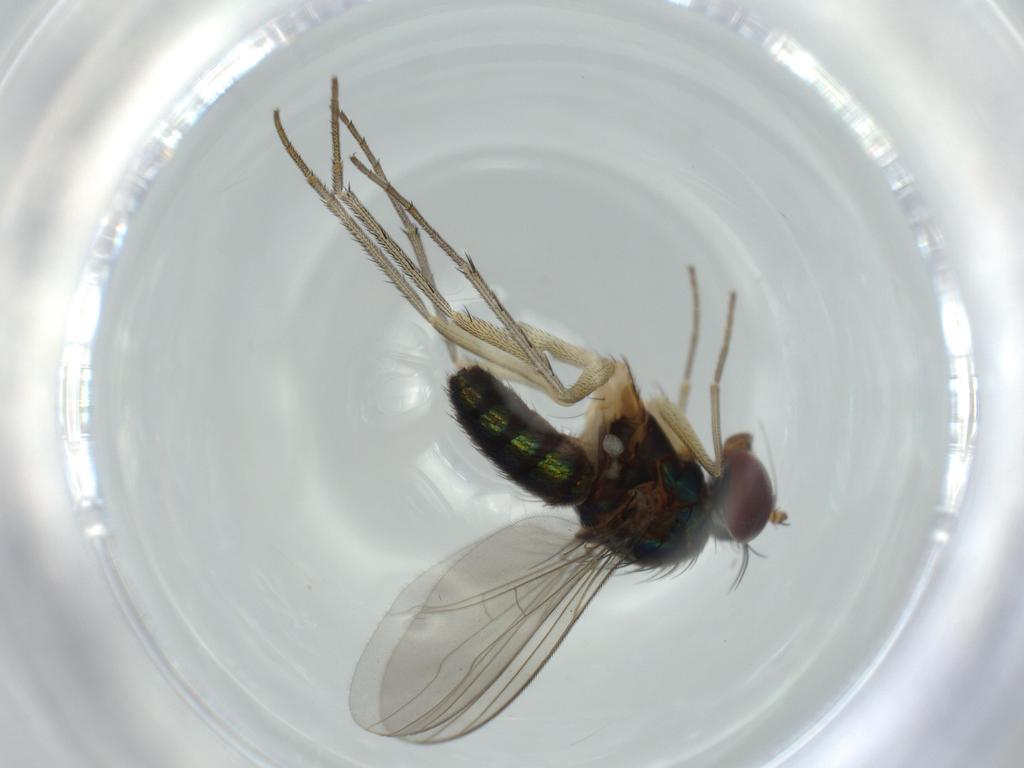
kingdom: Animalia
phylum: Arthropoda
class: Insecta
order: Diptera
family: Dolichopodidae
